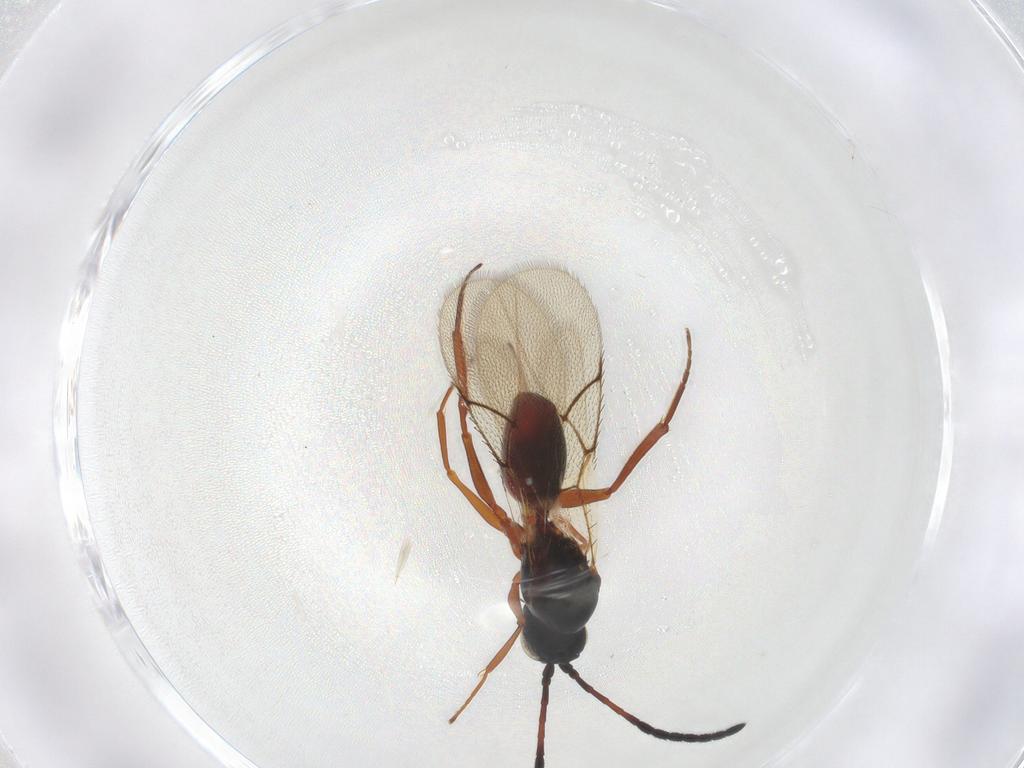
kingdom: Animalia
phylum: Arthropoda
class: Insecta
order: Hymenoptera
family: Figitidae
